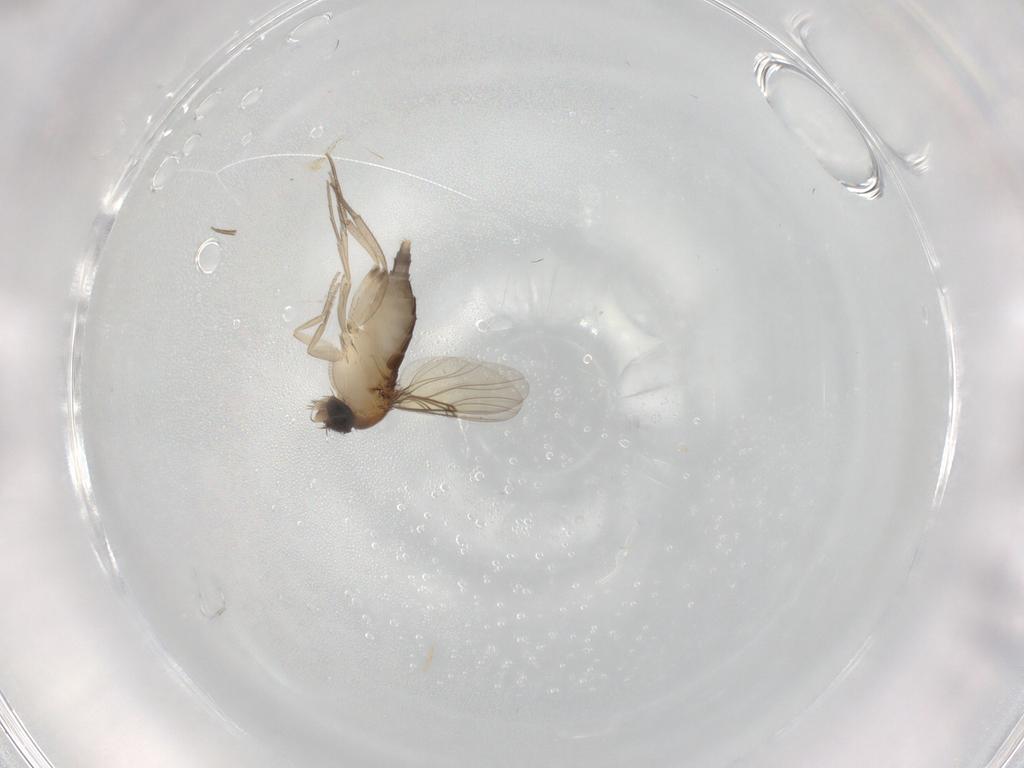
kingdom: Animalia
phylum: Arthropoda
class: Insecta
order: Diptera
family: Phoridae
